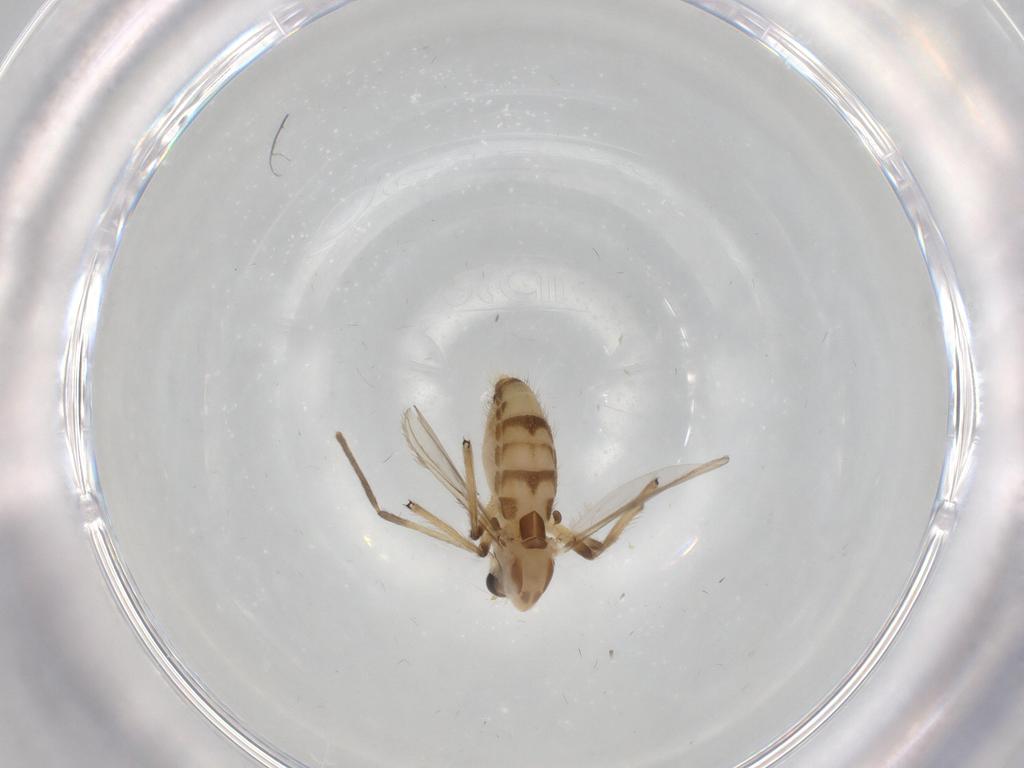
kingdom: Animalia
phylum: Arthropoda
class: Insecta
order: Diptera
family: Chironomidae
